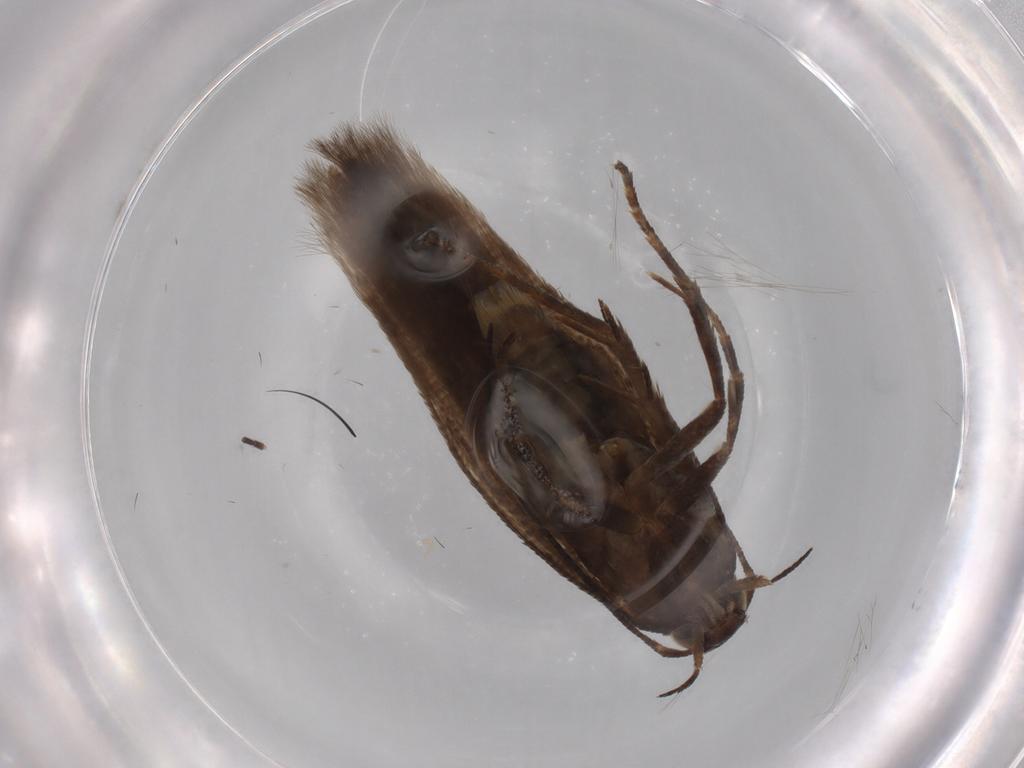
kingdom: Animalia
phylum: Arthropoda
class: Insecta
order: Lepidoptera
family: Gelechiidae
